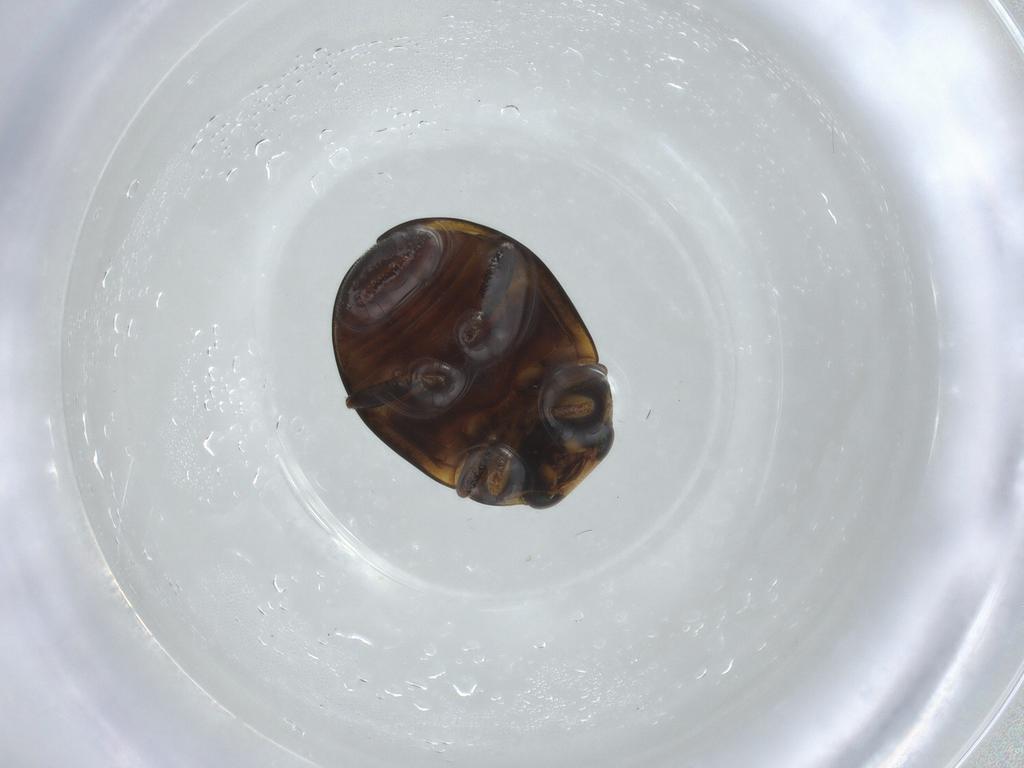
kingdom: Animalia
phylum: Arthropoda
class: Insecta
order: Coleoptera
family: Coccinellidae
